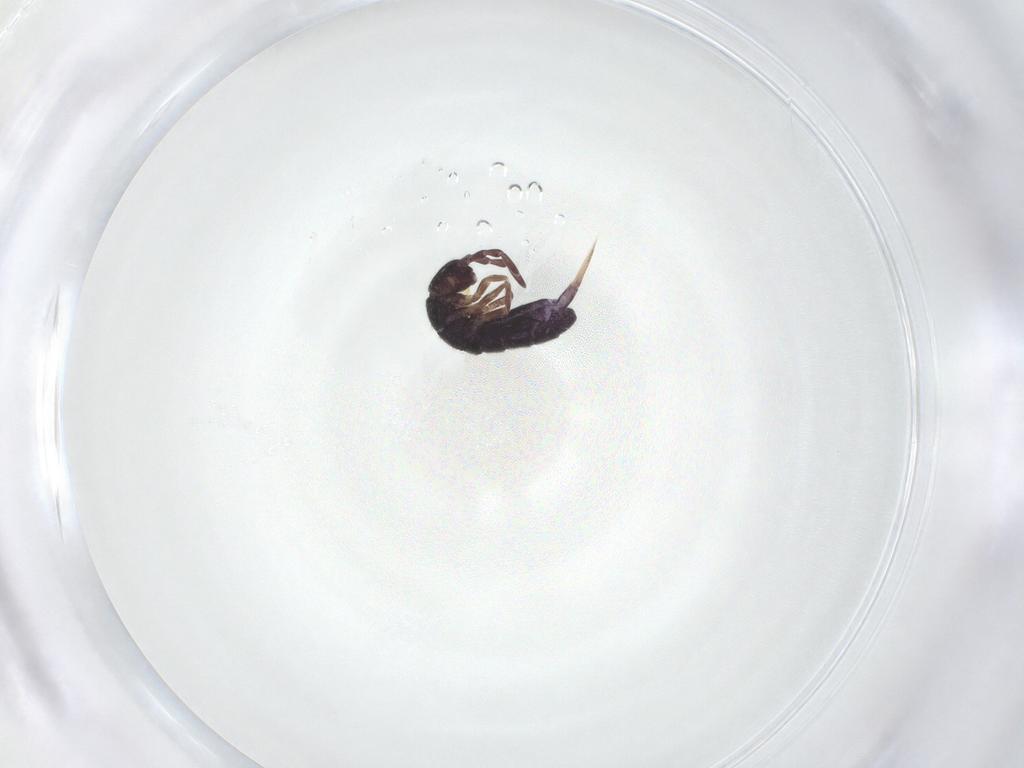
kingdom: Animalia
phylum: Arthropoda
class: Collembola
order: Entomobryomorpha
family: Isotomidae
